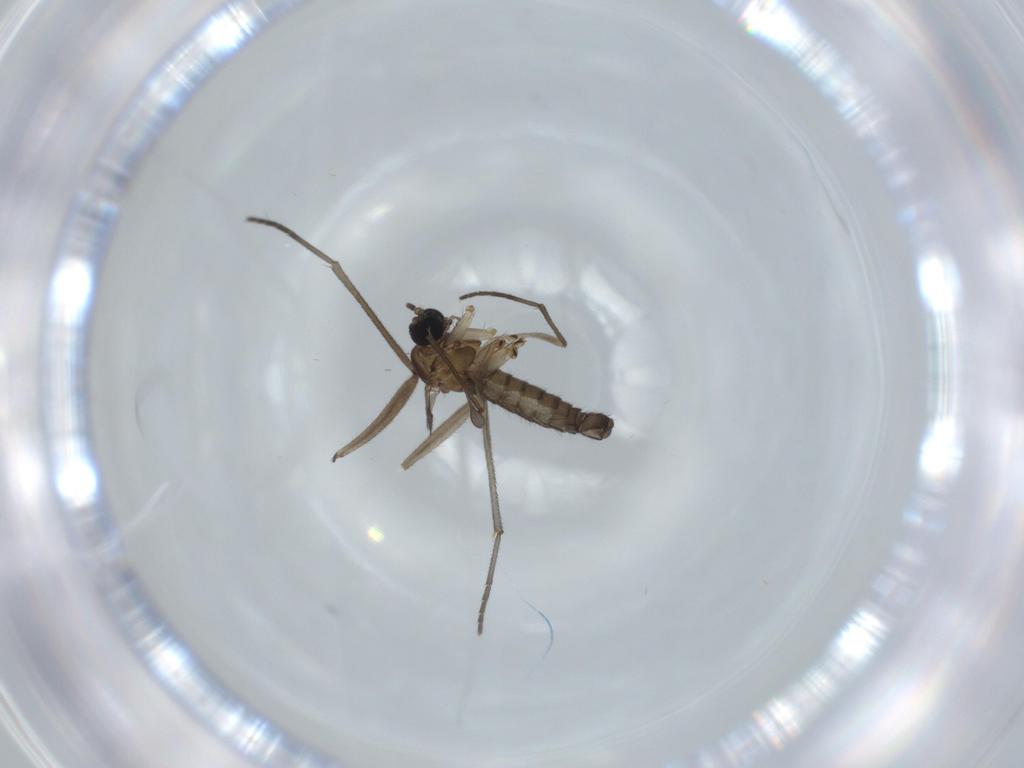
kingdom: Animalia
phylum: Arthropoda
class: Insecta
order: Diptera
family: Sciaridae
